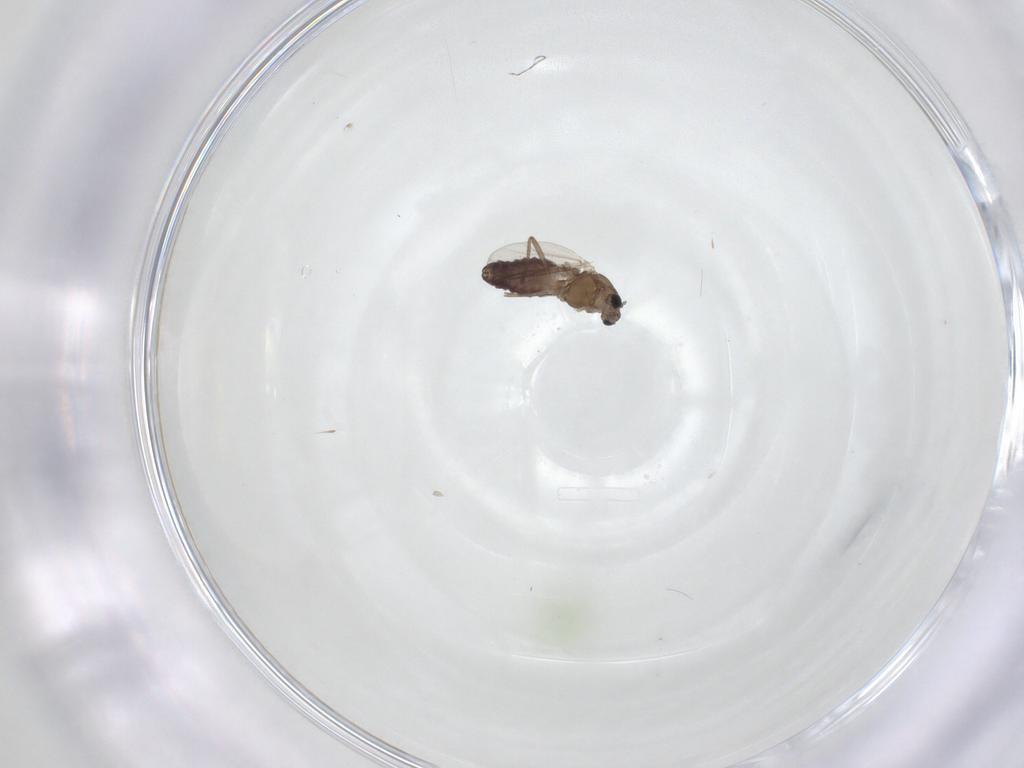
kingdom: Animalia
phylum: Arthropoda
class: Insecta
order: Diptera
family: Chironomidae
